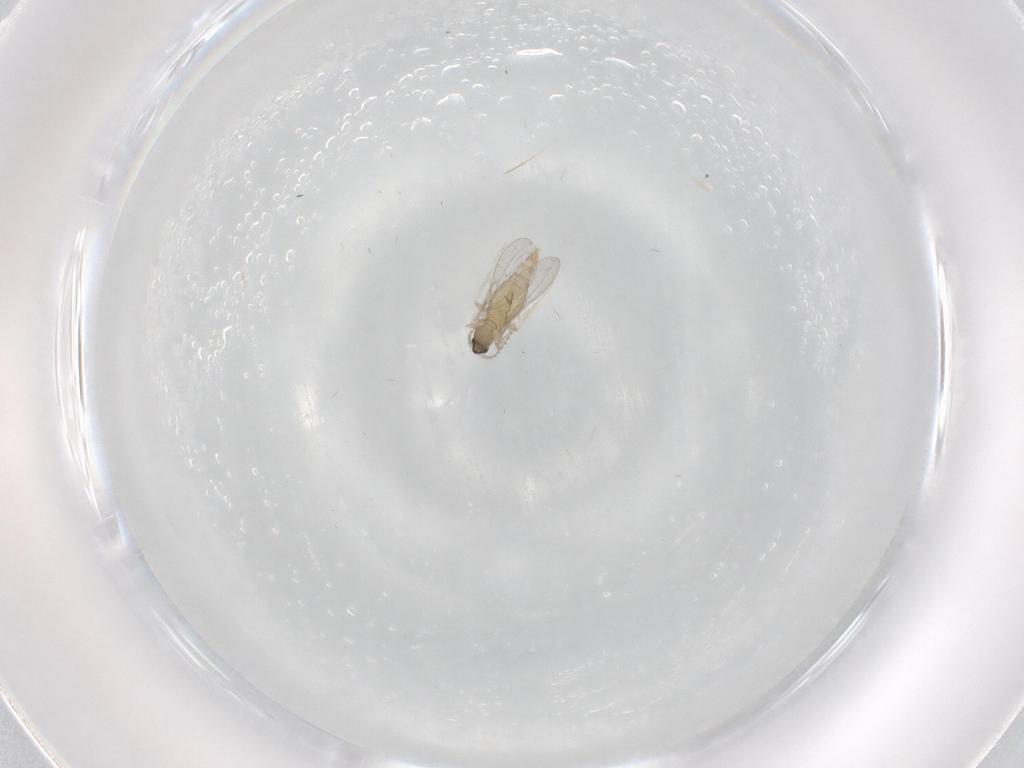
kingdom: Animalia
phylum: Arthropoda
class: Insecta
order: Diptera
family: Cecidomyiidae
